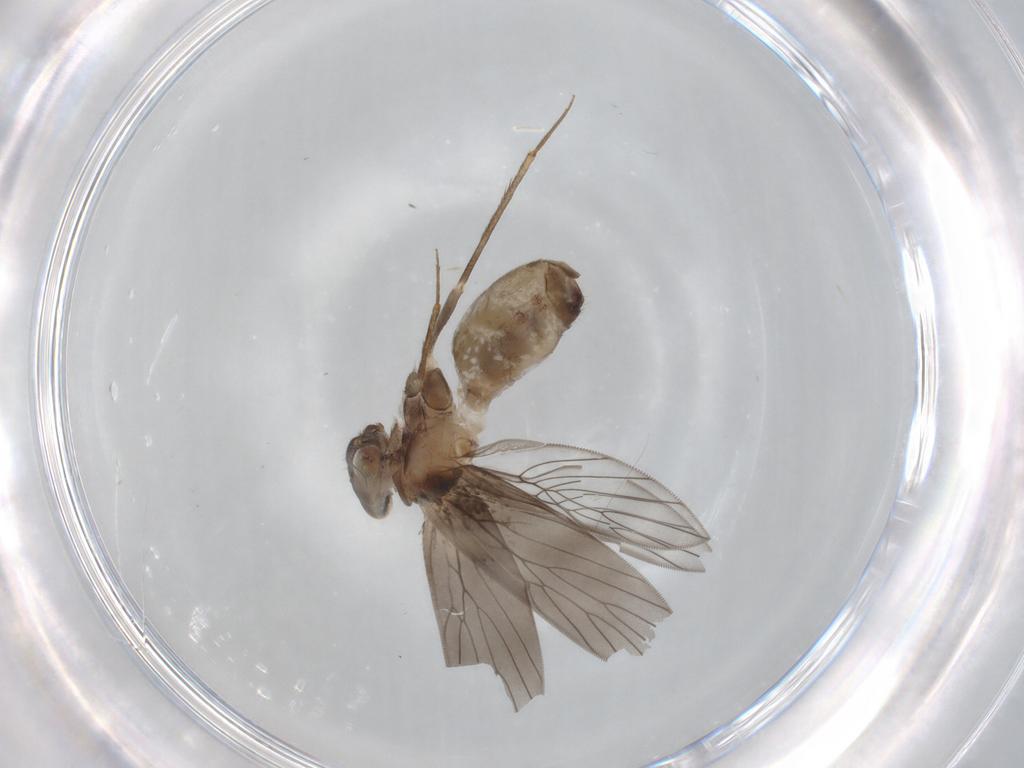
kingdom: Animalia
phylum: Arthropoda
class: Insecta
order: Psocodea
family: Lepidopsocidae
